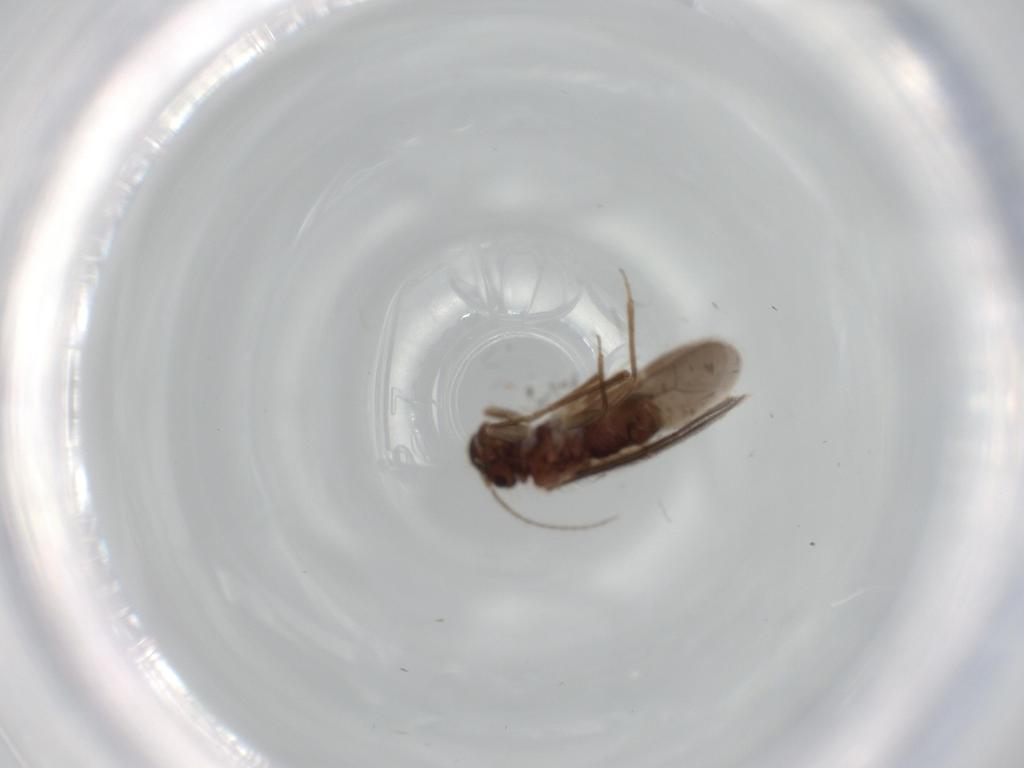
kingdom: Animalia
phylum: Arthropoda
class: Insecta
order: Psocodea
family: Archipsocidae
